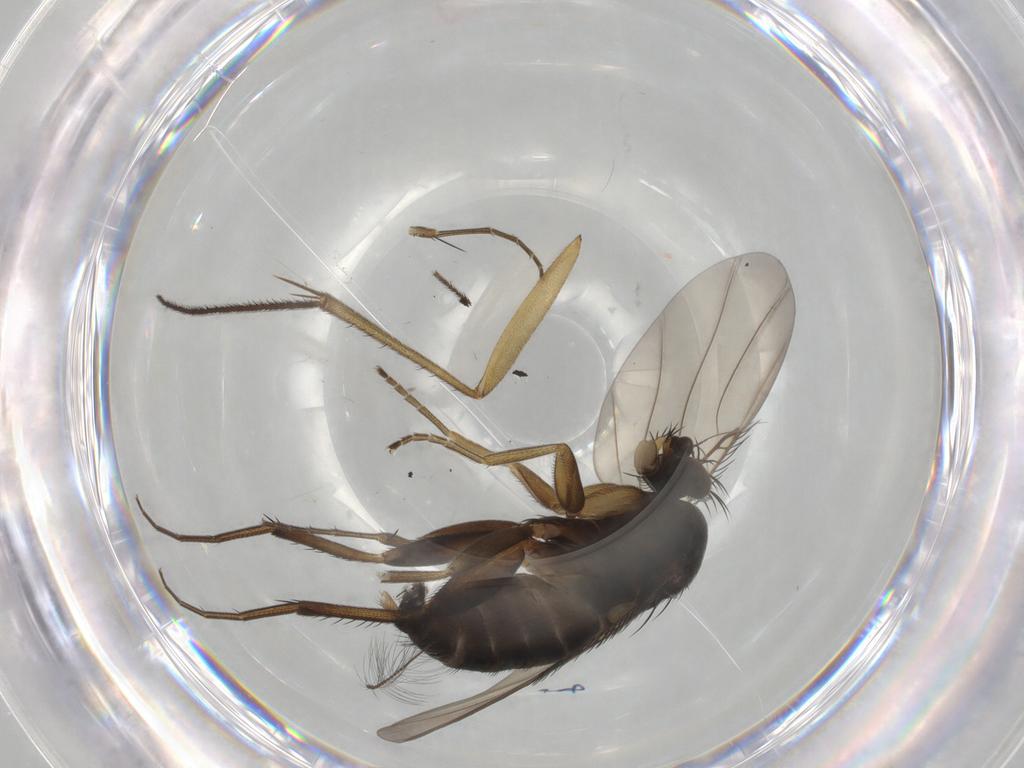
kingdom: Animalia
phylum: Arthropoda
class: Insecta
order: Diptera
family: Phoridae
